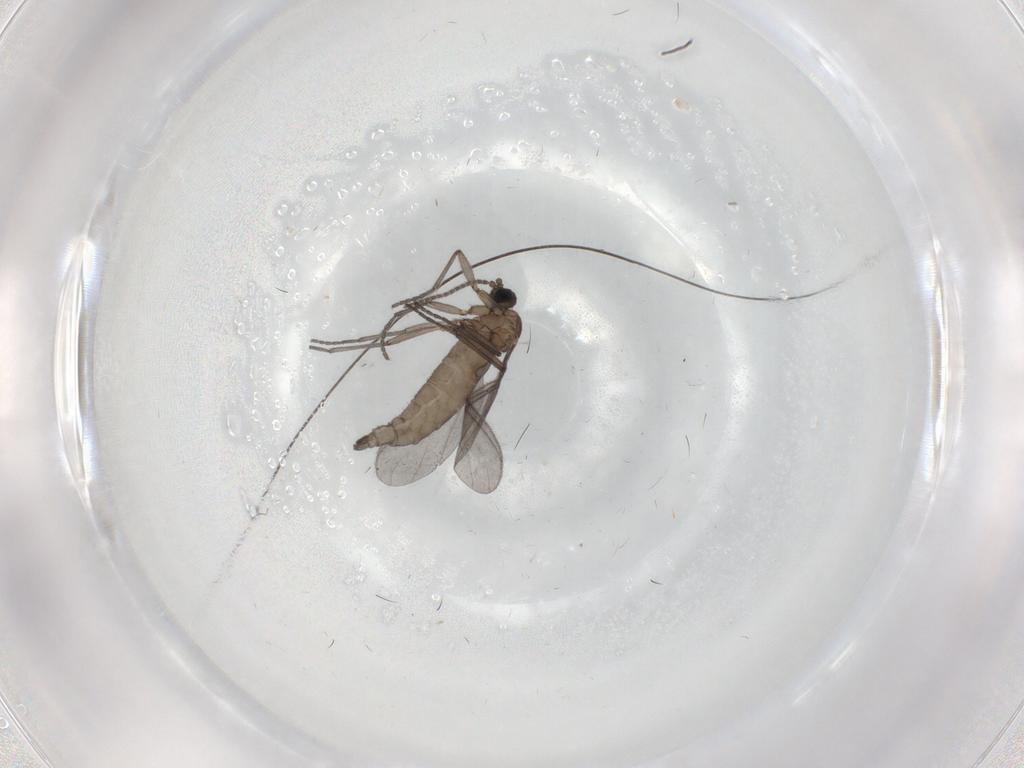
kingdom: Animalia
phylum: Arthropoda
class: Insecta
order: Diptera
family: Sciaridae
